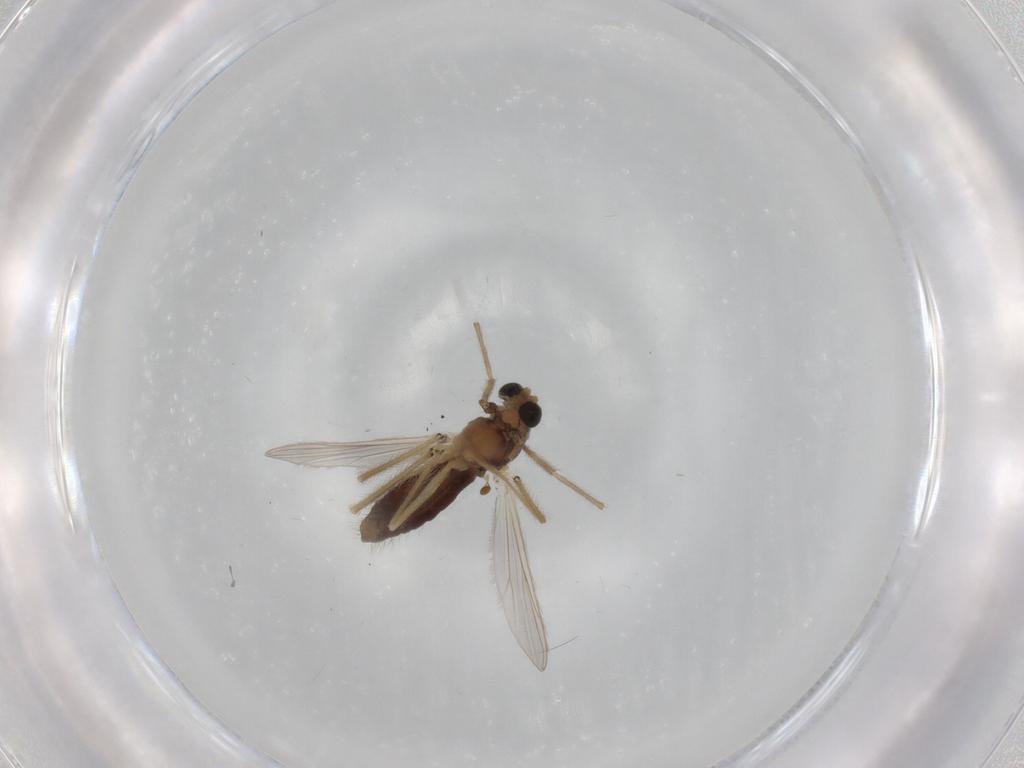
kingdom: Animalia
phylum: Arthropoda
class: Insecta
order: Diptera
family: Chironomidae
